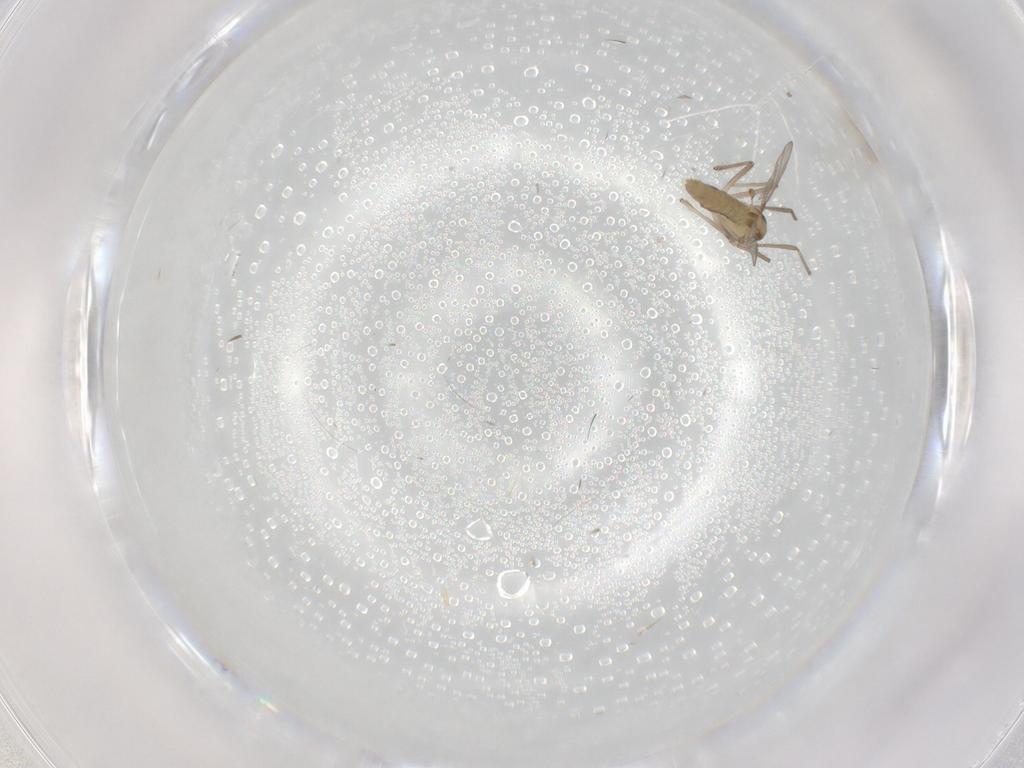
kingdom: Animalia
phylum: Arthropoda
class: Insecta
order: Diptera
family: Chironomidae
